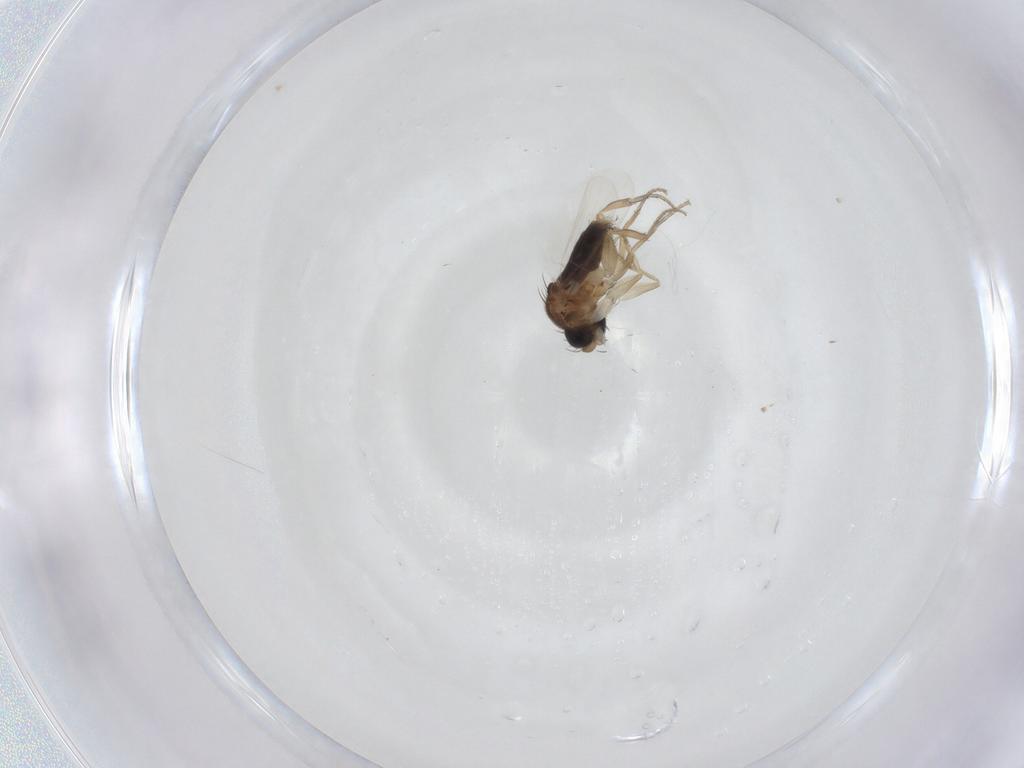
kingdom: Animalia
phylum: Arthropoda
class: Insecta
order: Diptera
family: Phoridae
